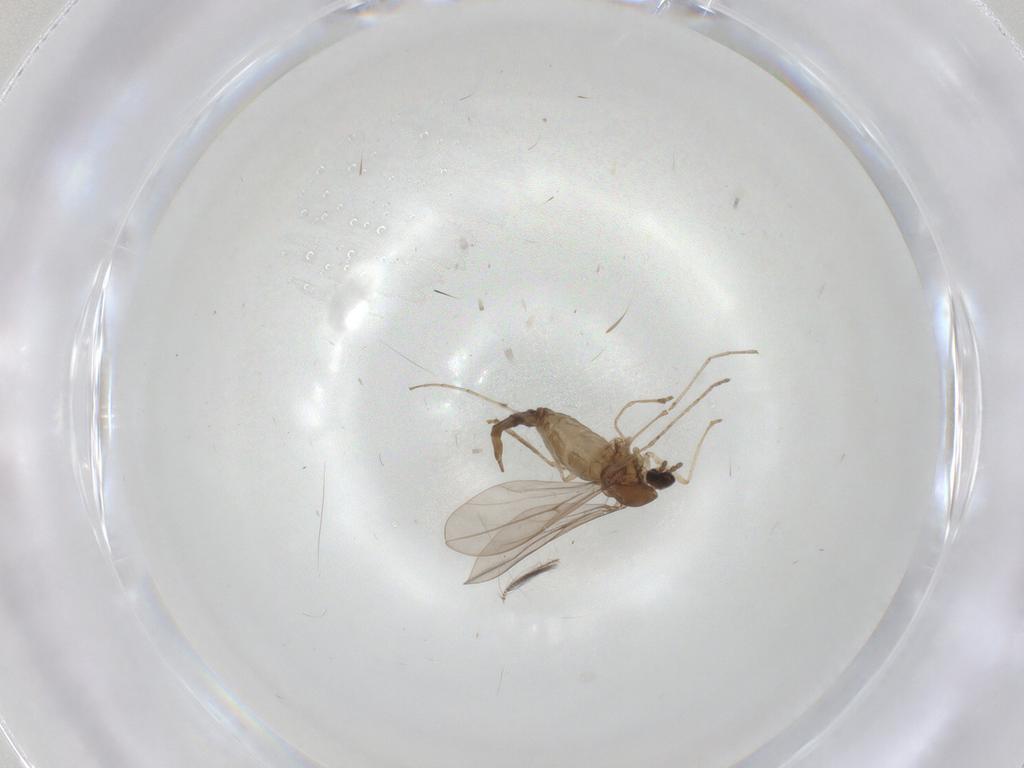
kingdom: Animalia
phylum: Arthropoda
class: Insecta
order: Diptera
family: Cecidomyiidae
